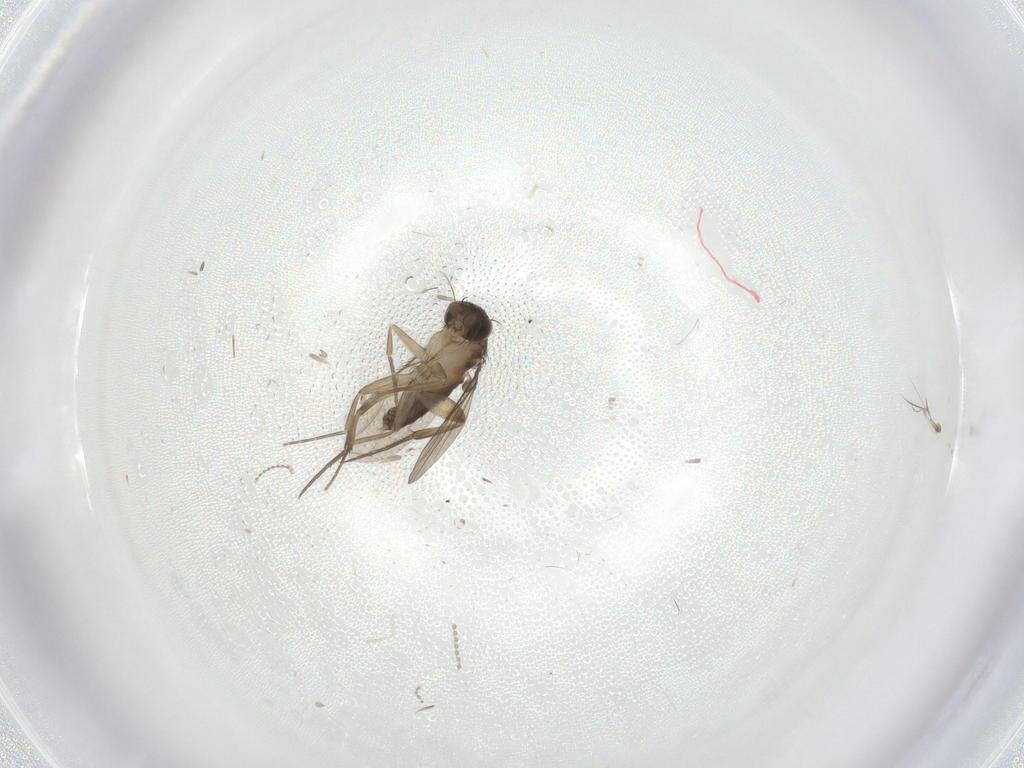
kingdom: Animalia
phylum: Arthropoda
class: Insecta
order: Diptera
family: Phoridae
